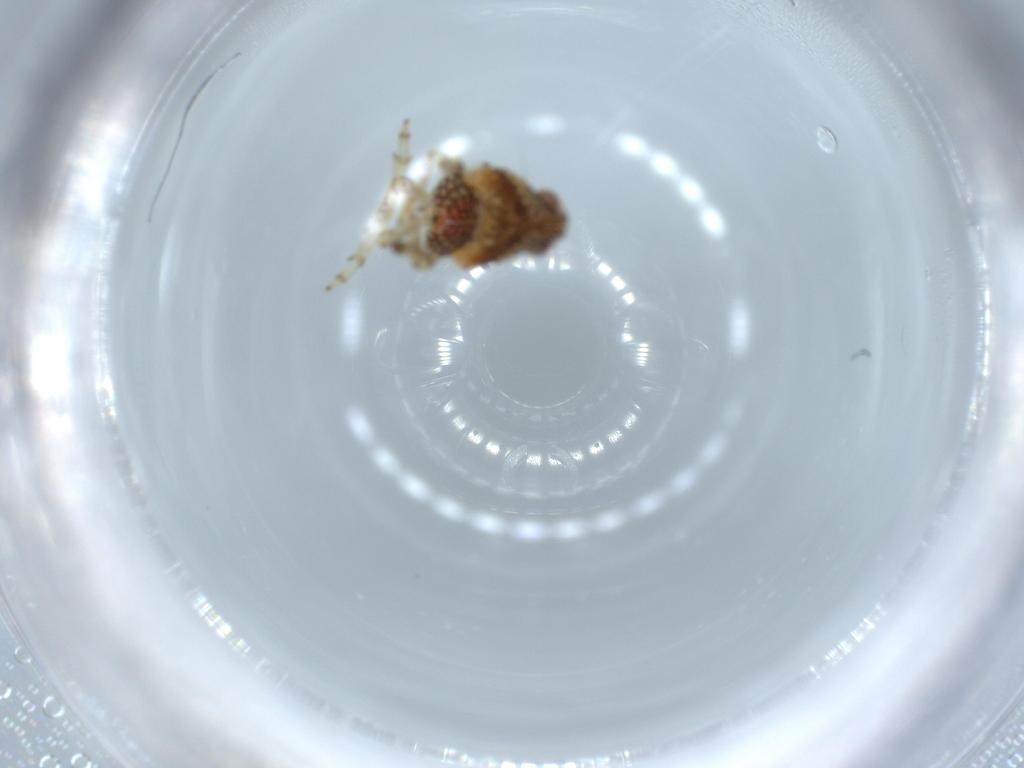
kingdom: Animalia
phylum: Arthropoda
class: Insecta
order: Hemiptera
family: Issidae
